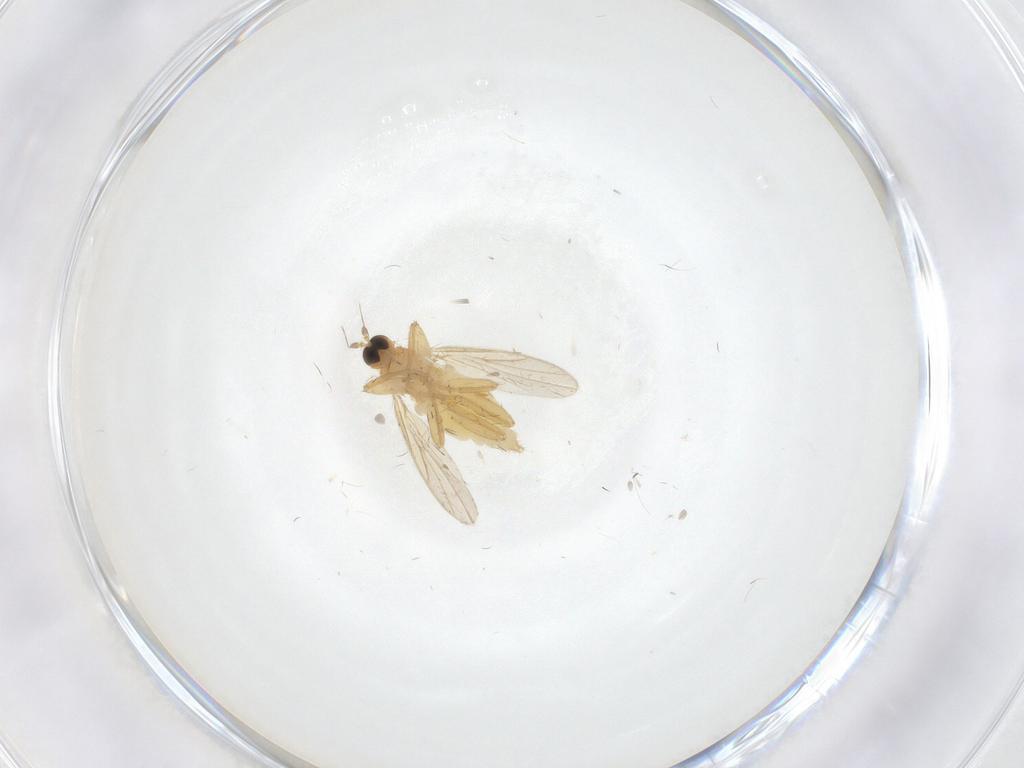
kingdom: Animalia
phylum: Arthropoda
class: Insecta
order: Diptera
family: Hybotidae
